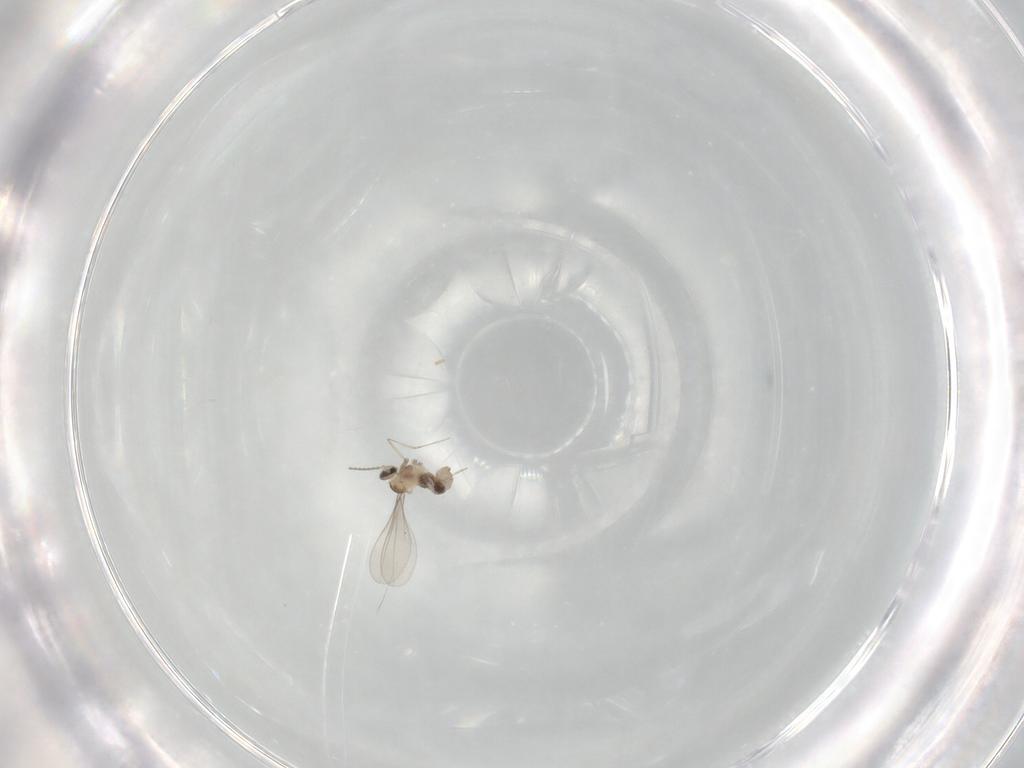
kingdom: Animalia
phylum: Arthropoda
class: Insecta
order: Diptera
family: Cecidomyiidae
